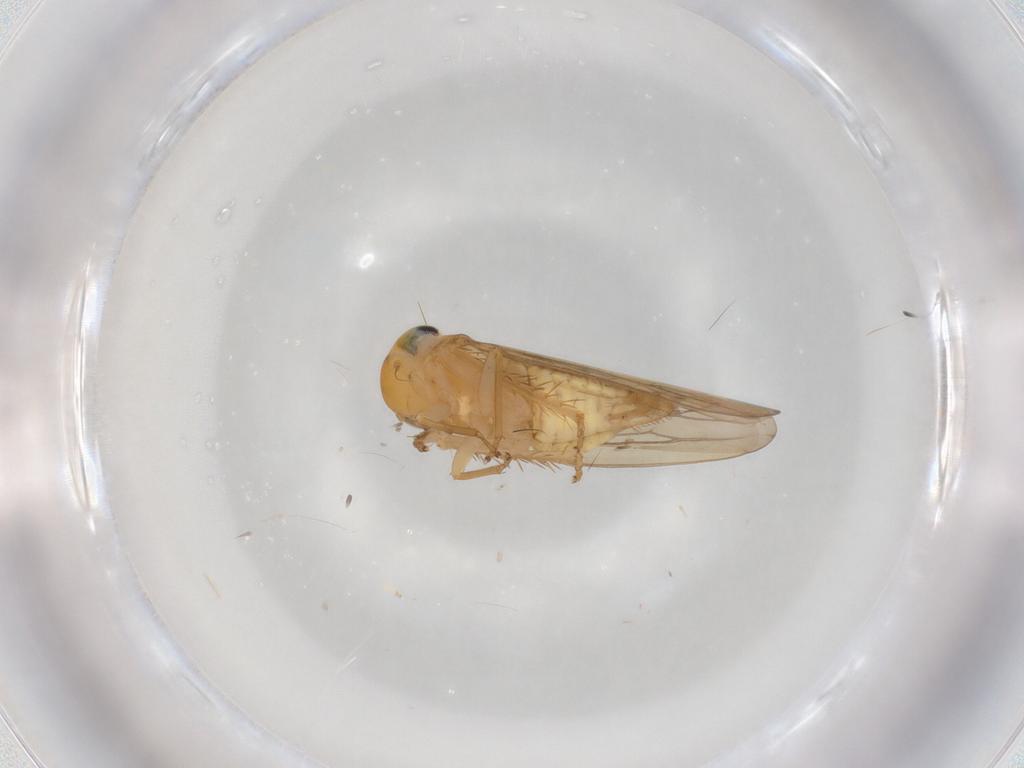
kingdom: Animalia
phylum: Arthropoda
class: Insecta
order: Hemiptera
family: Cicadellidae
